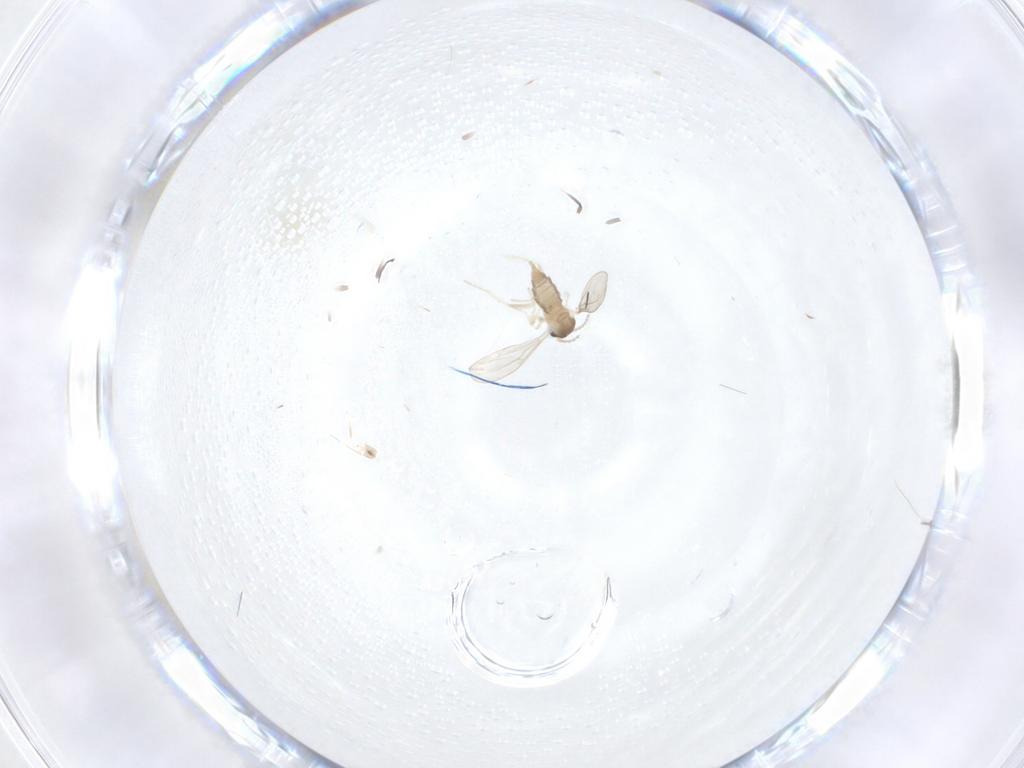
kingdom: Animalia
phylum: Arthropoda
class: Insecta
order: Diptera
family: Cecidomyiidae
